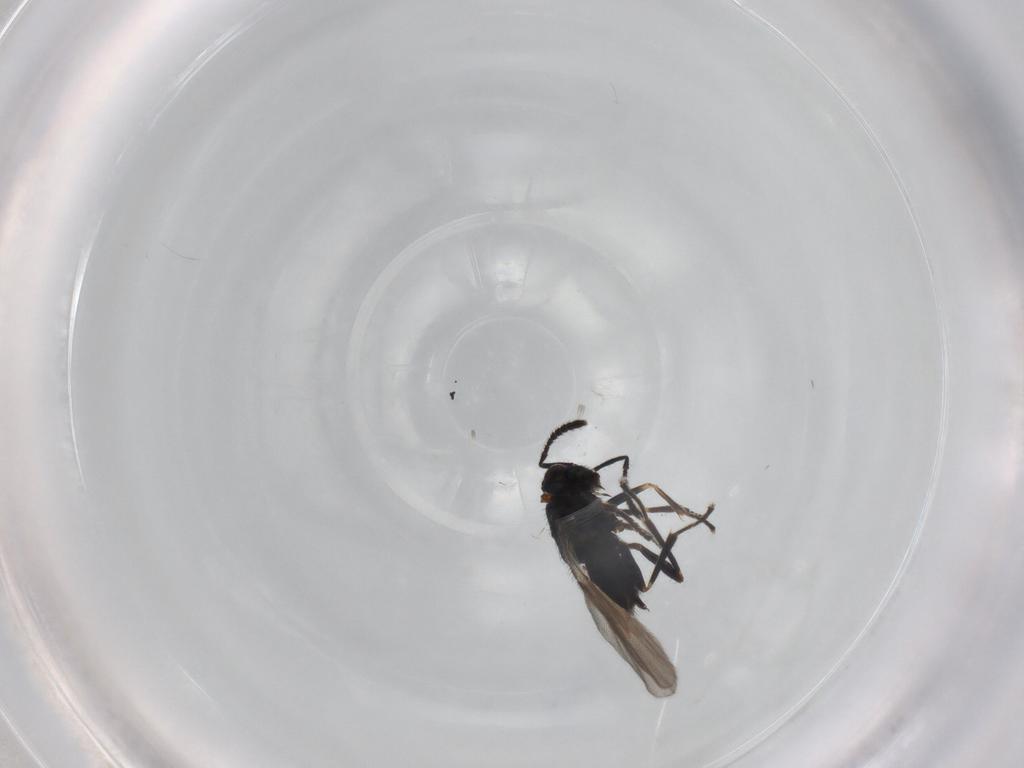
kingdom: Animalia
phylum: Arthropoda
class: Insecta
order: Hymenoptera
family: Encyrtidae
